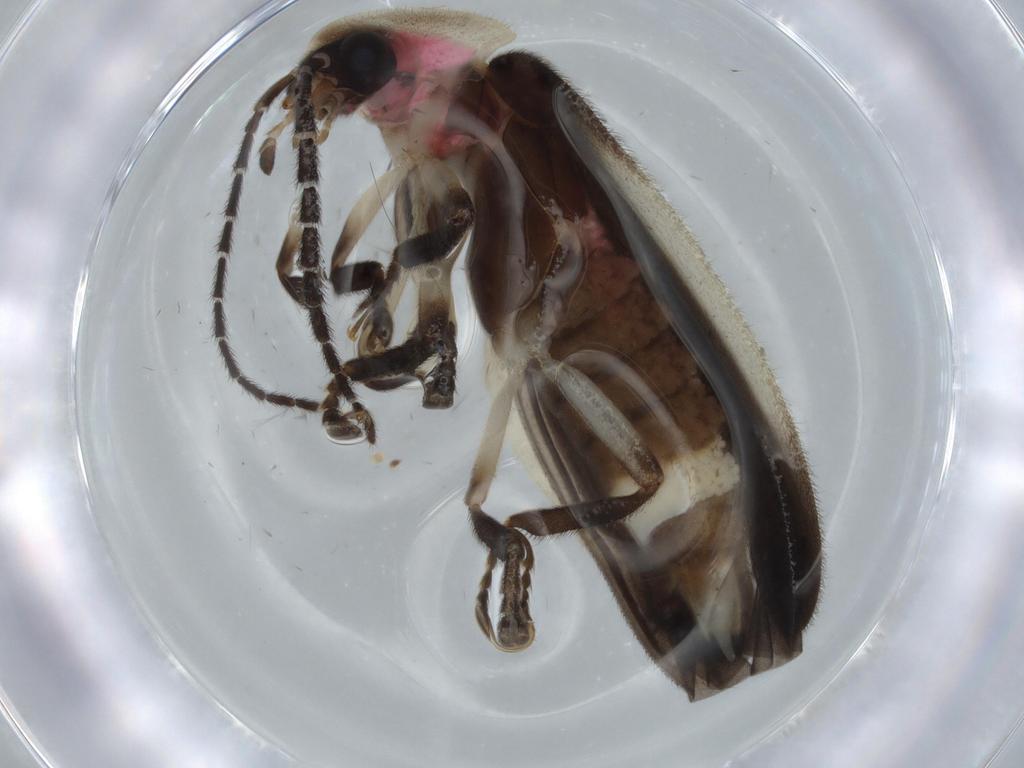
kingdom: Animalia
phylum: Arthropoda
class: Insecta
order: Coleoptera
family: Lampyridae
